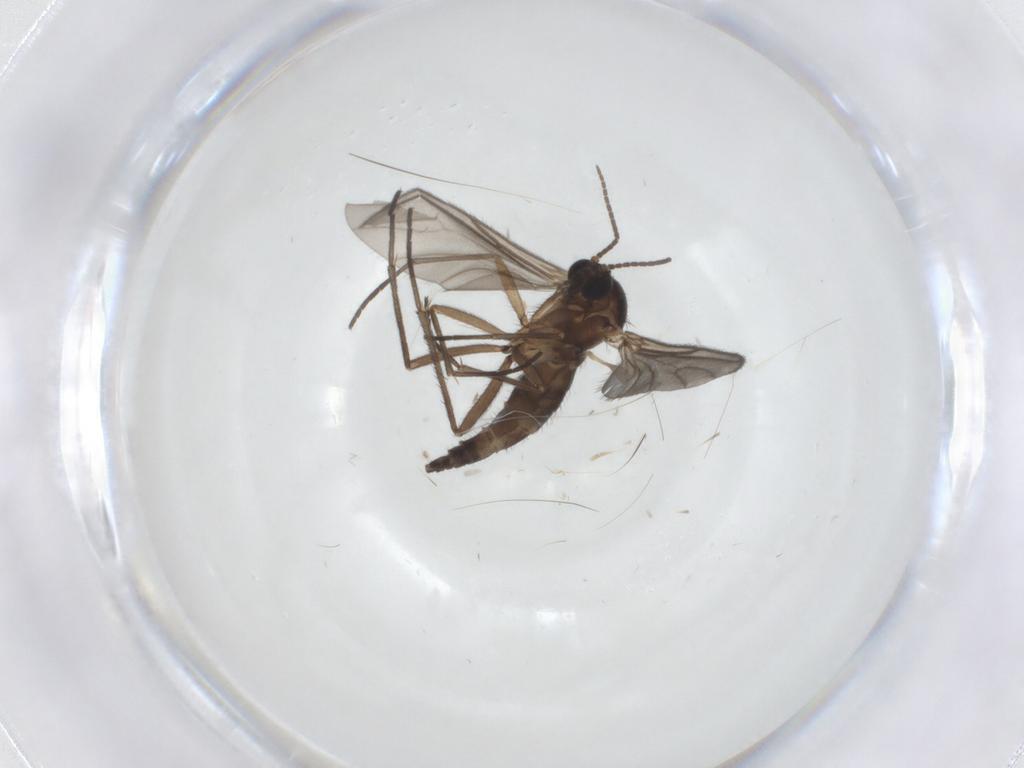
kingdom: Animalia
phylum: Arthropoda
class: Insecta
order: Diptera
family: Sciaridae
